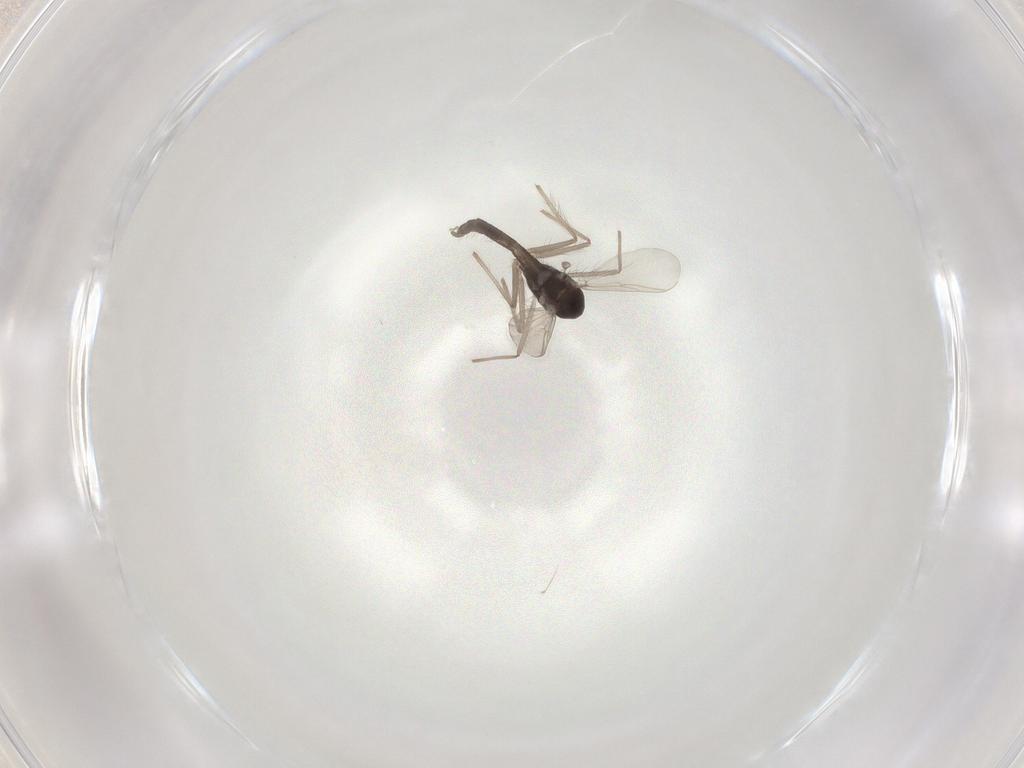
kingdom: Animalia
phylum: Arthropoda
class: Insecta
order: Diptera
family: Chironomidae
